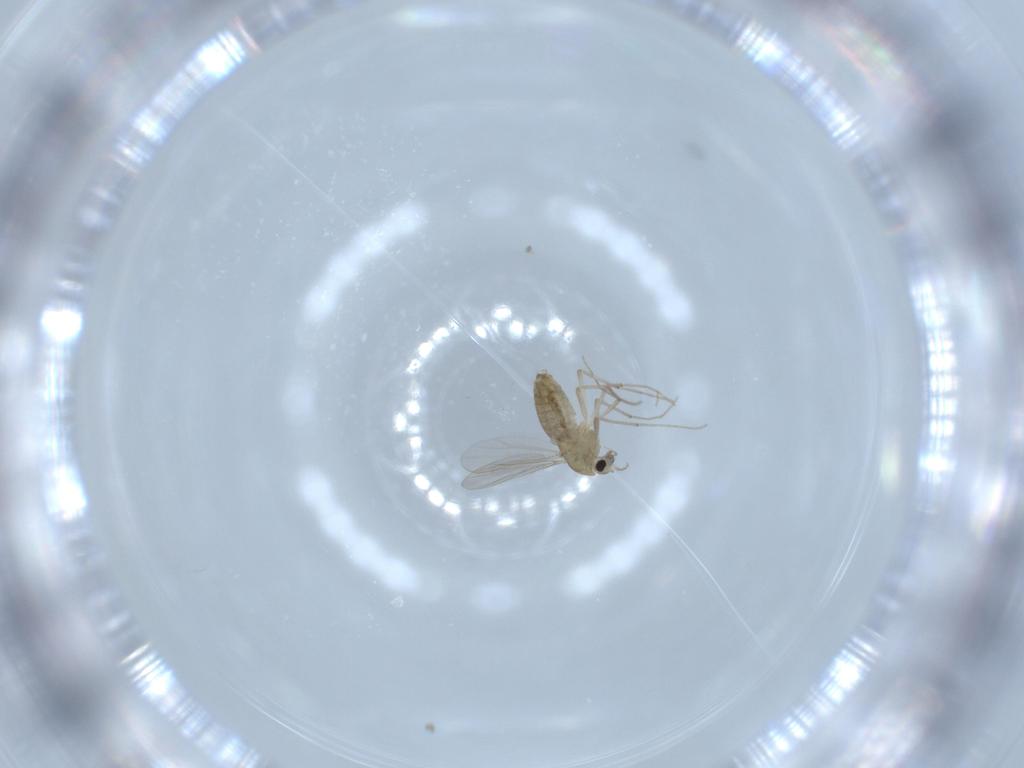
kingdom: Animalia
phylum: Arthropoda
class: Insecta
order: Diptera
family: Chironomidae
